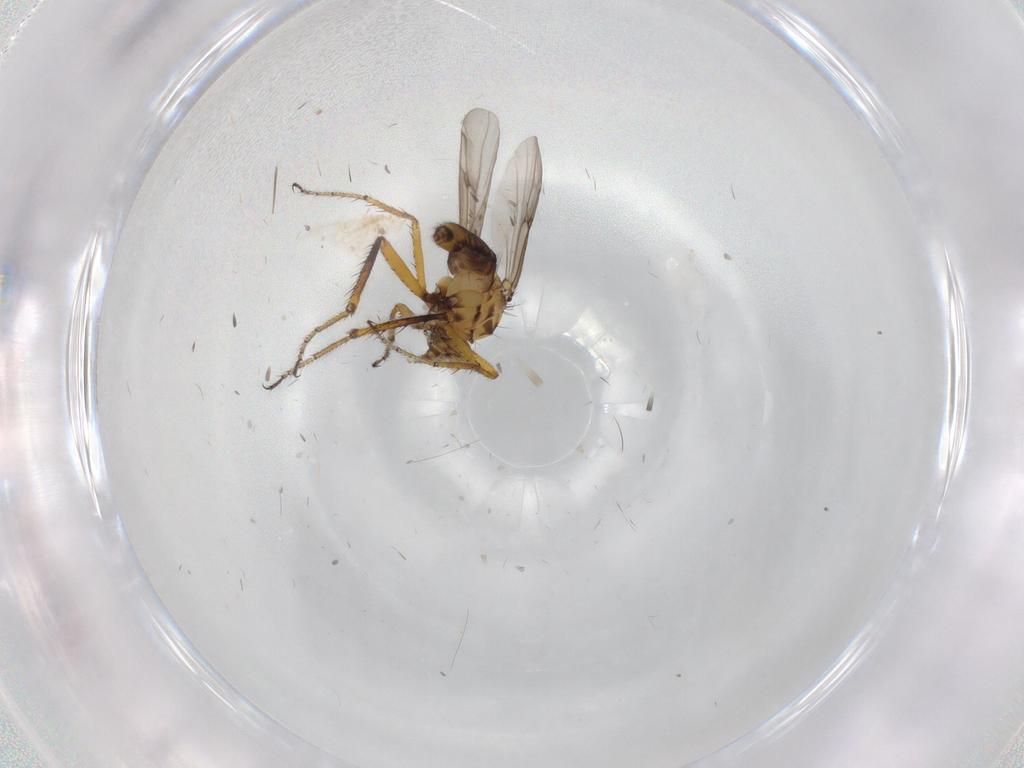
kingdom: Animalia
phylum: Arthropoda
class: Insecta
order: Diptera
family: Ceratopogonidae
